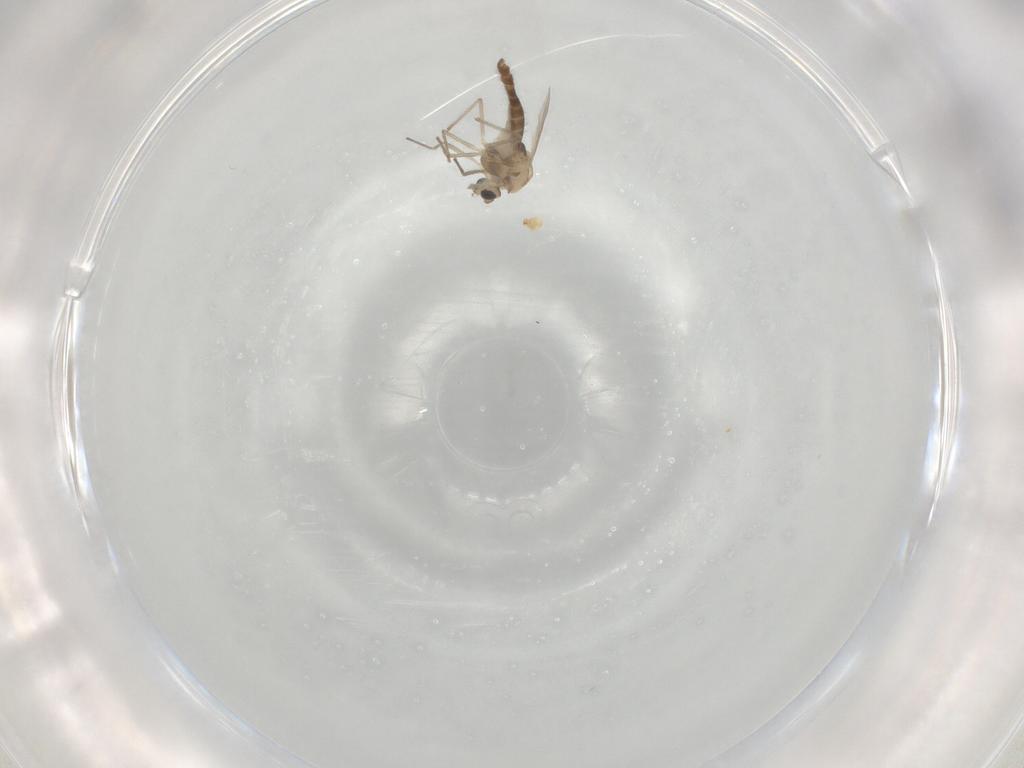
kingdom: Animalia
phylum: Arthropoda
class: Insecta
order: Diptera
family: Chironomidae
